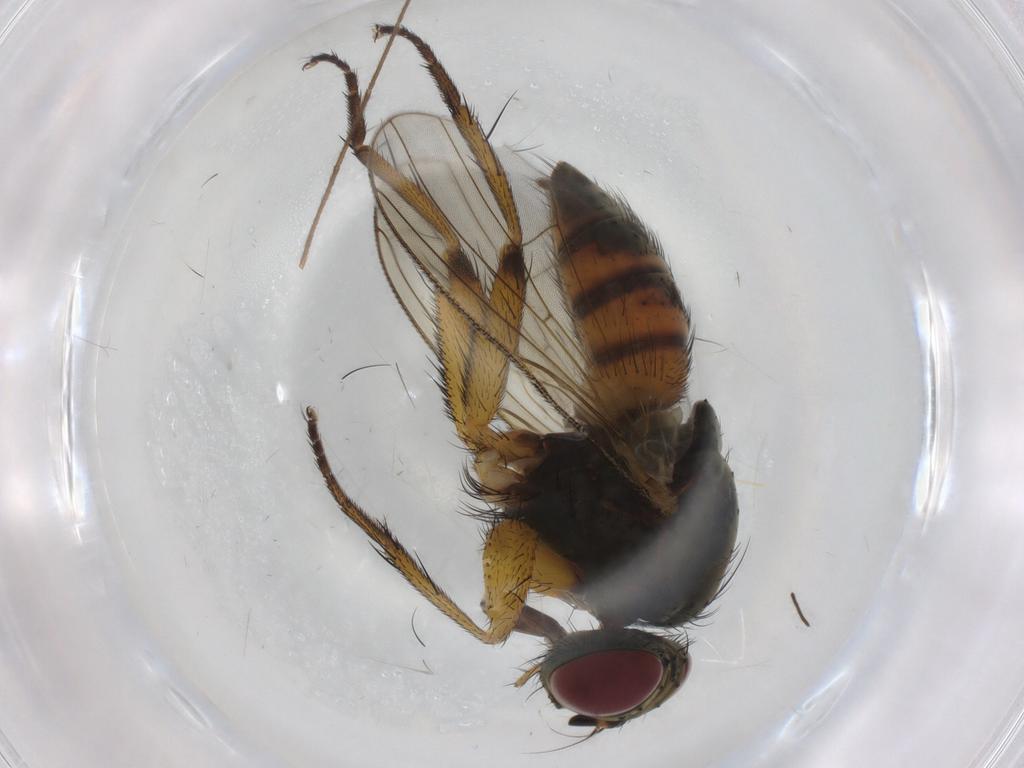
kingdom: Animalia
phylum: Arthropoda
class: Insecta
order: Diptera
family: Muscidae
